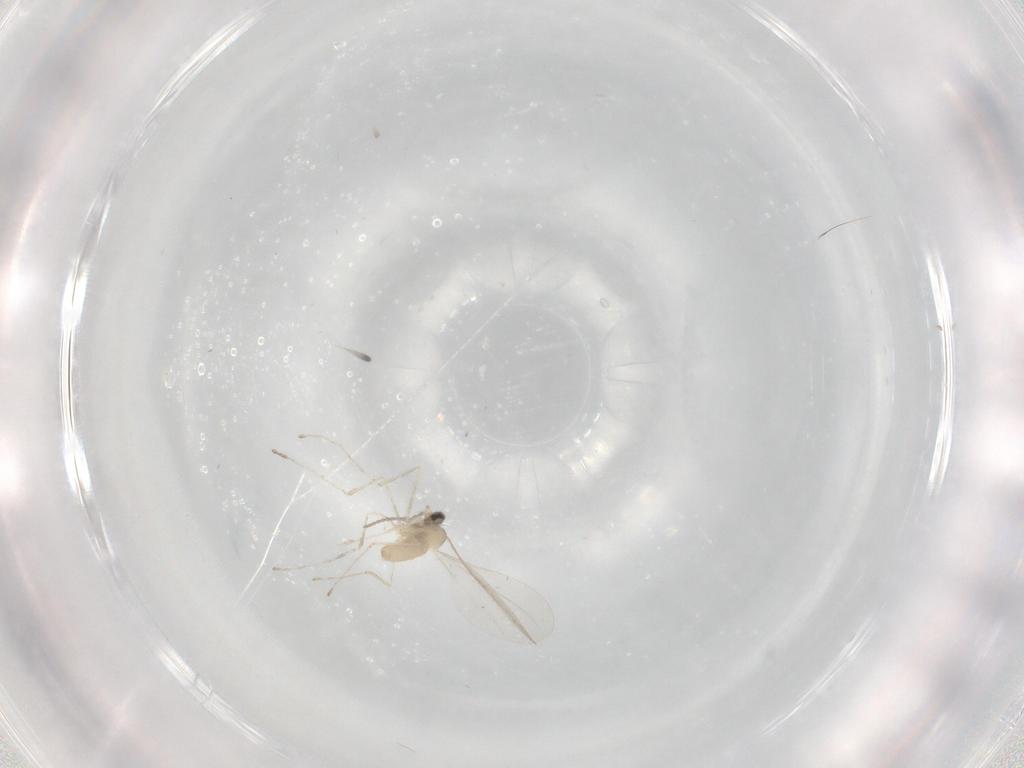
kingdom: Animalia
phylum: Arthropoda
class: Insecta
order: Diptera
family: Cecidomyiidae
